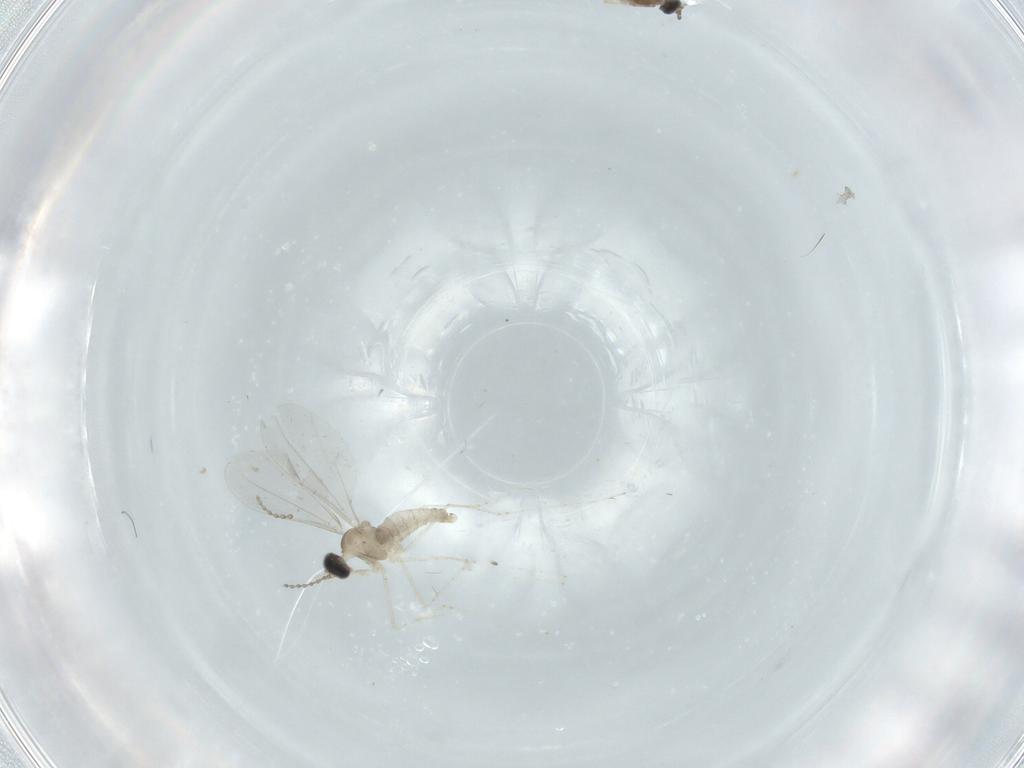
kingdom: Animalia
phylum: Arthropoda
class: Insecta
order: Diptera
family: Cecidomyiidae
